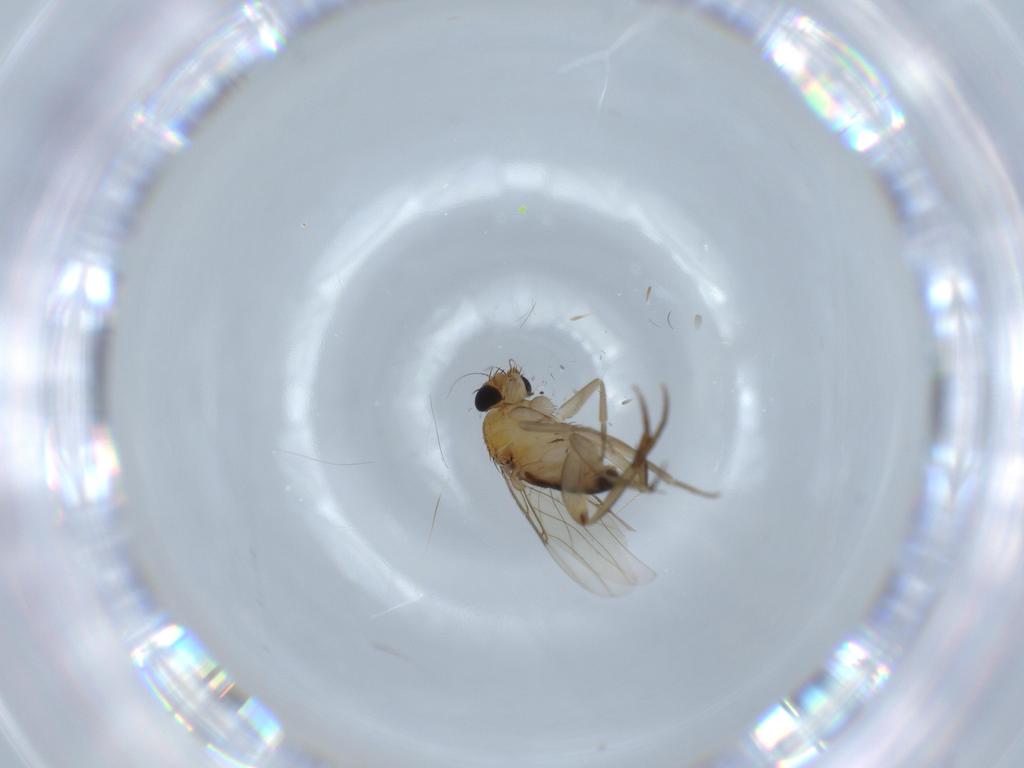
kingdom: Animalia
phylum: Arthropoda
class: Insecta
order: Diptera
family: Phoridae
